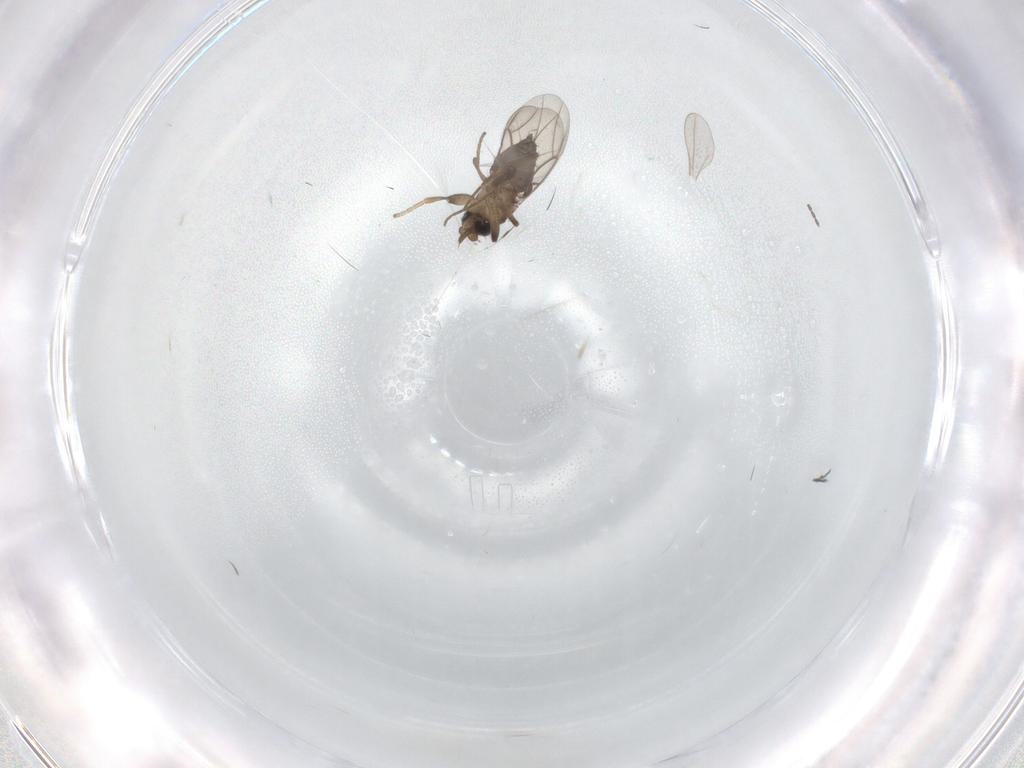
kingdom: Animalia
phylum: Arthropoda
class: Insecta
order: Diptera
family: Phoridae
